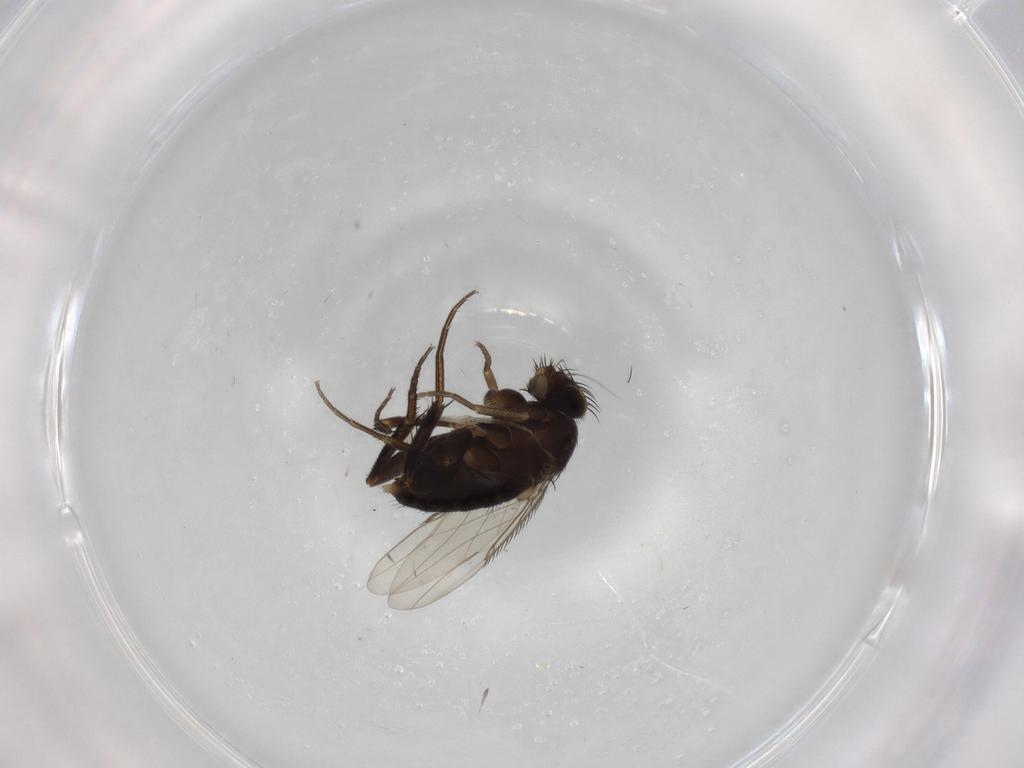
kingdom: Animalia
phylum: Arthropoda
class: Insecta
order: Diptera
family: Phoridae
